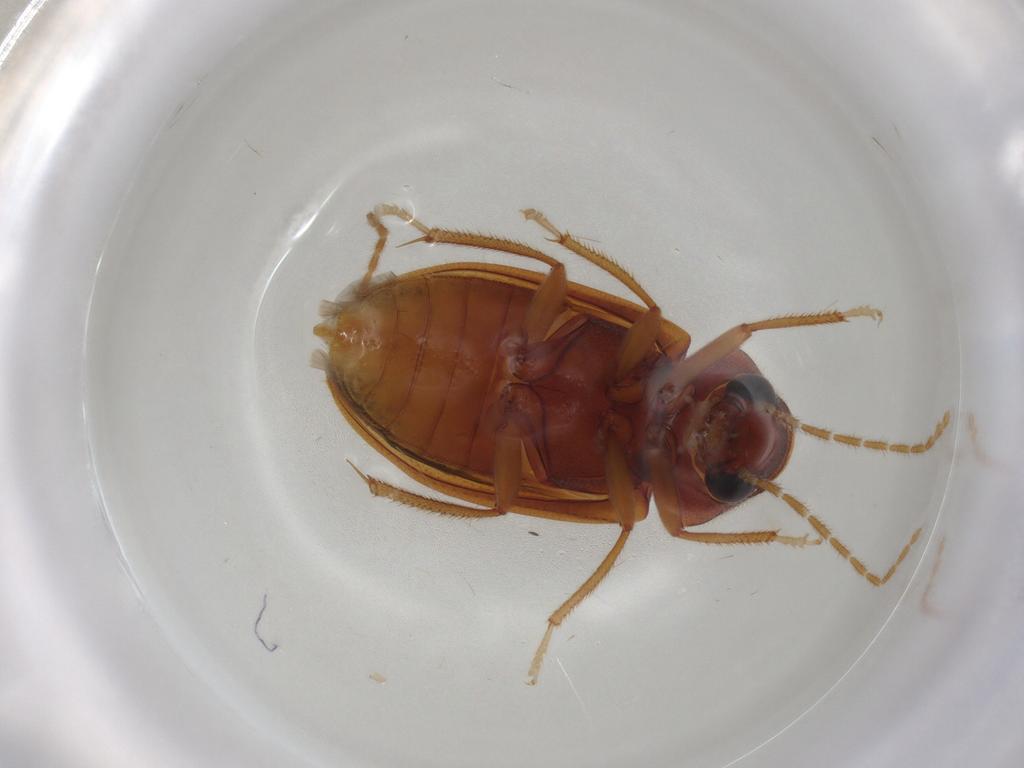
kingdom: Animalia
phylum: Arthropoda
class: Insecta
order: Coleoptera
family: Ptilodactylidae
